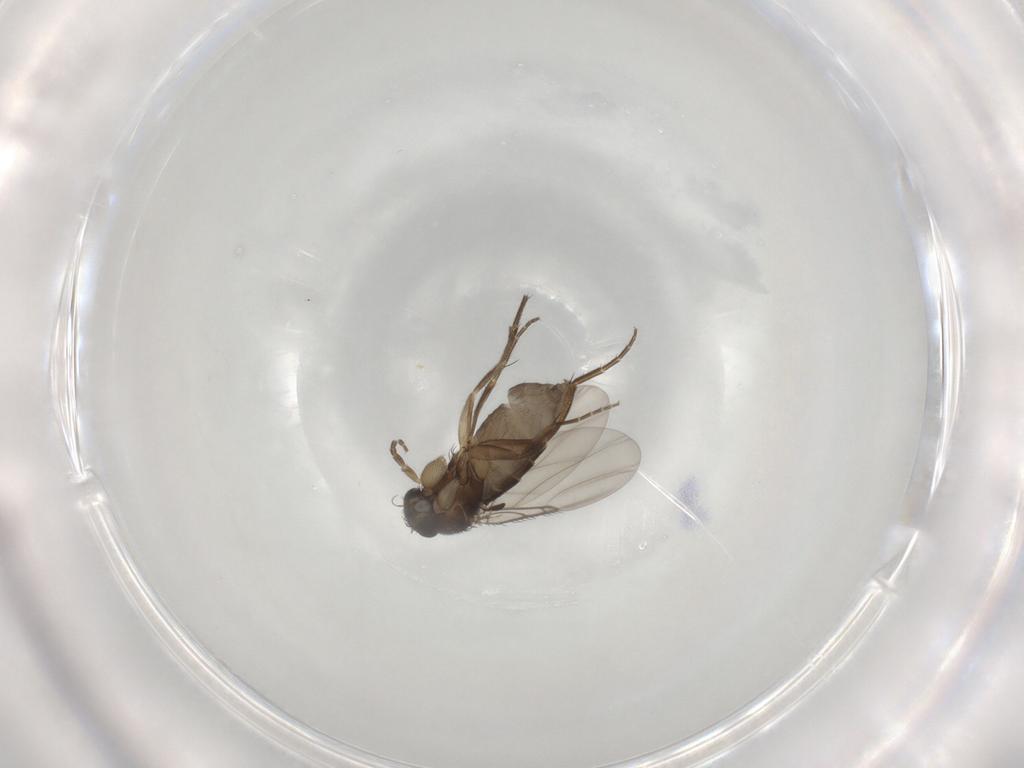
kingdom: Animalia
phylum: Arthropoda
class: Insecta
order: Diptera
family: Phoridae
